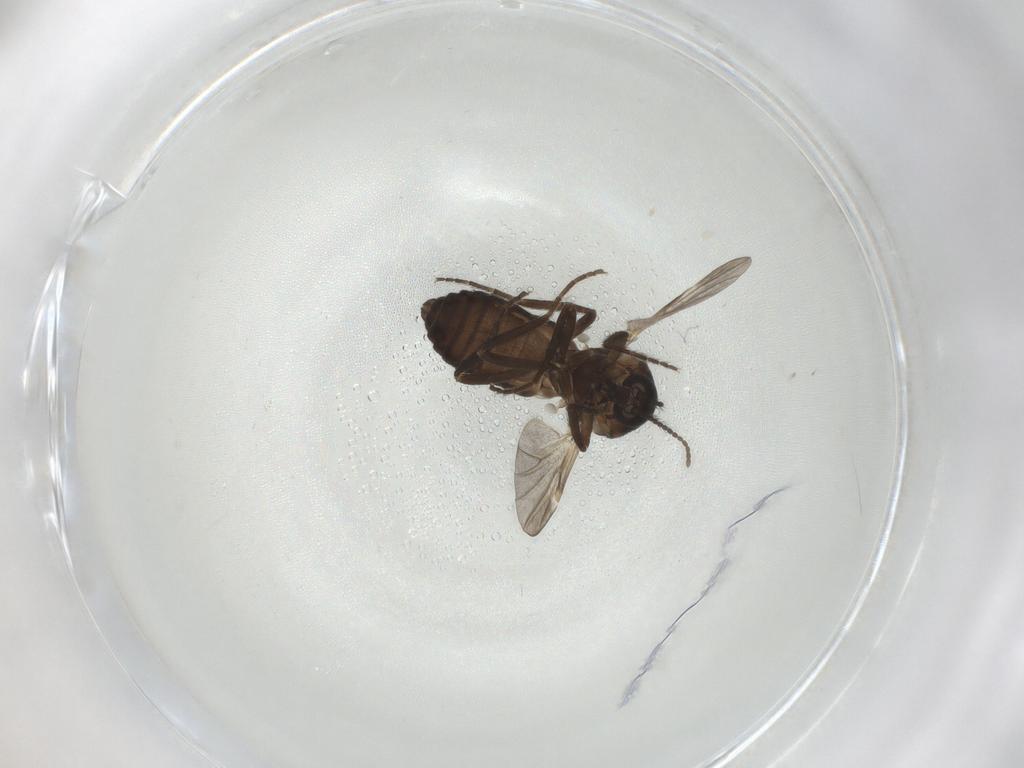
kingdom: Animalia
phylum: Arthropoda
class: Insecta
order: Diptera
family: Ceratopogonidae
